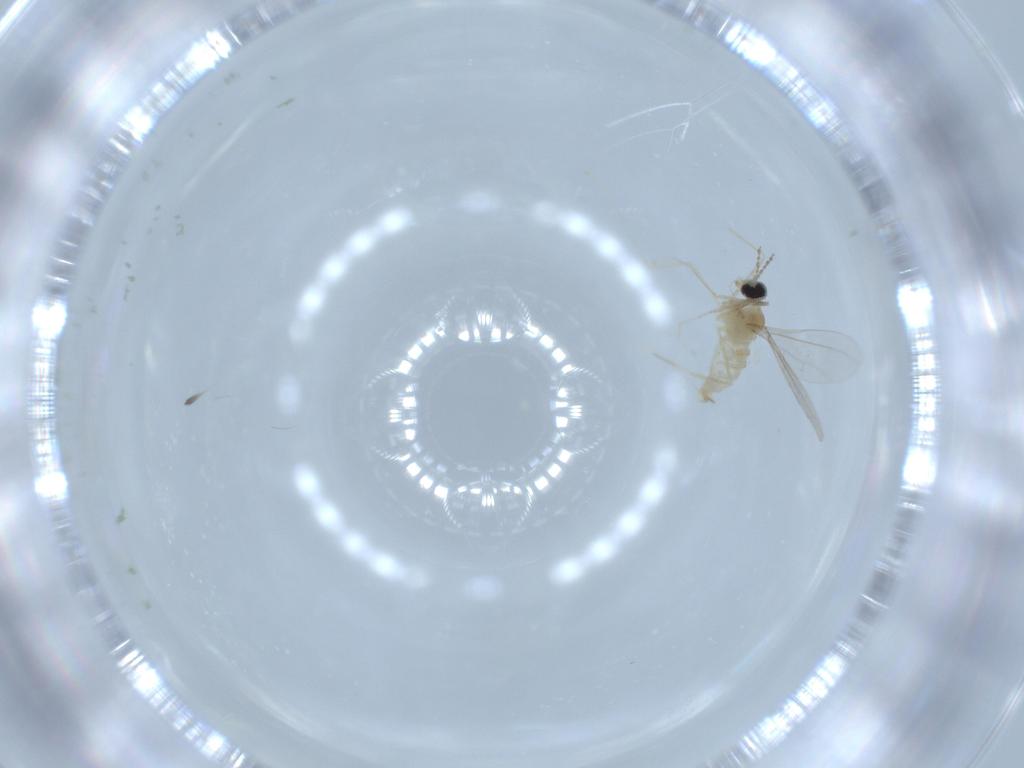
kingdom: Animalia
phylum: Arthropoda
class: Insecta
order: Diptera
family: Cecidomyiidae
